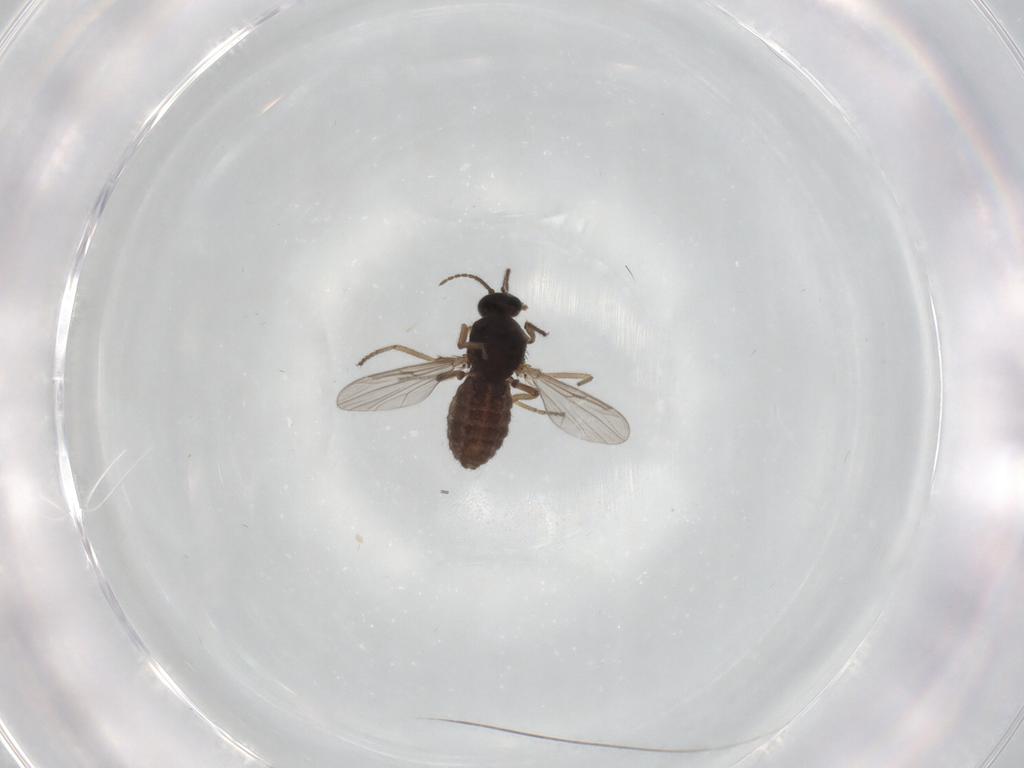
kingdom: Animalia
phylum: Arthropoda
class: Insecta
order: Diptera
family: Ceratopogonidae
